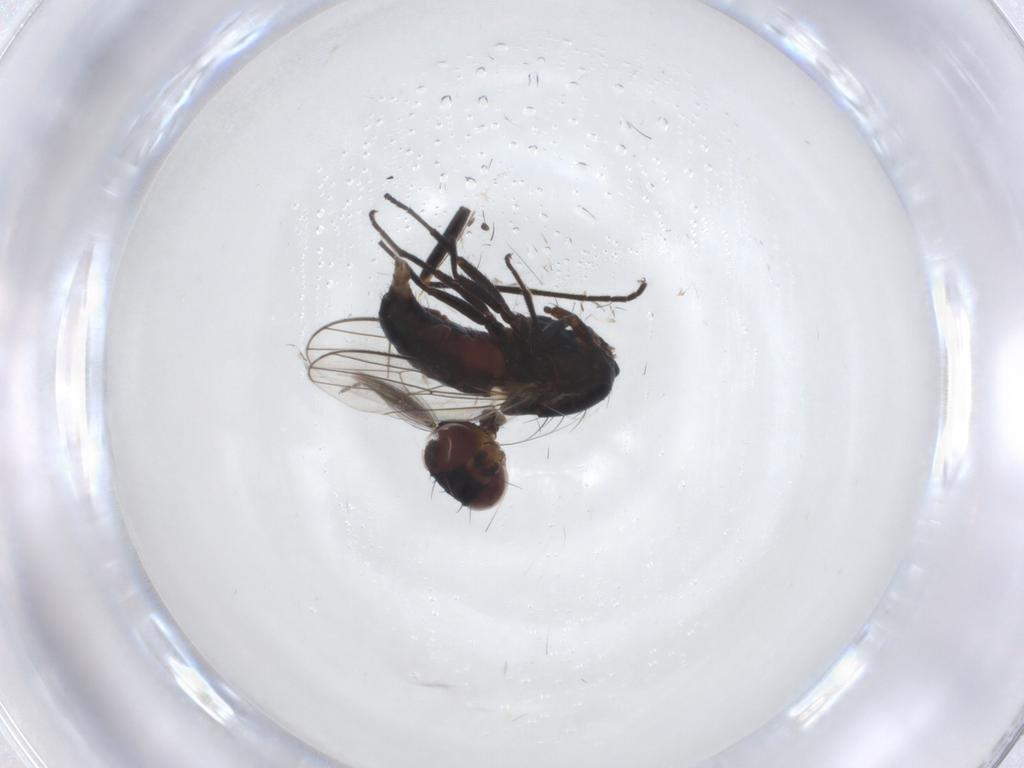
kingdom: Animalia
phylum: Arthropoda
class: Insecta
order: Diptera
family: Carnidae
